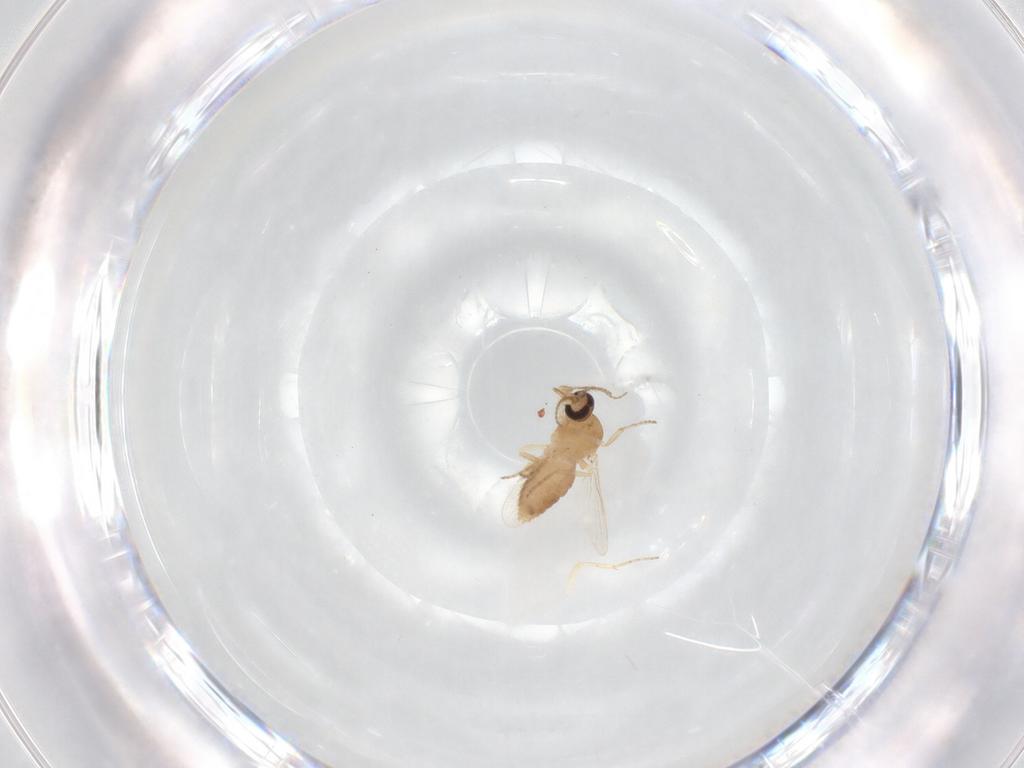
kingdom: Animalia
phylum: Arthropoda
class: Insecta
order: Diptera
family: Ceratopogonidae
